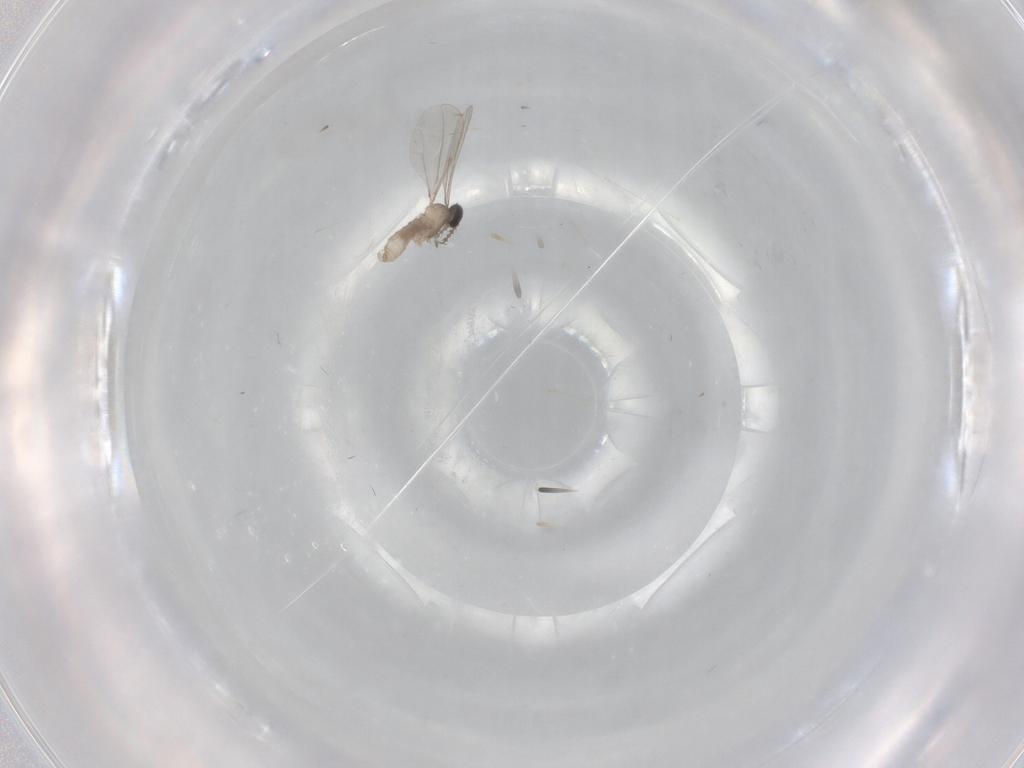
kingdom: Animalia
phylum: Arthropoda
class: Insecta
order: Diptera
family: Cecidomyiidae
